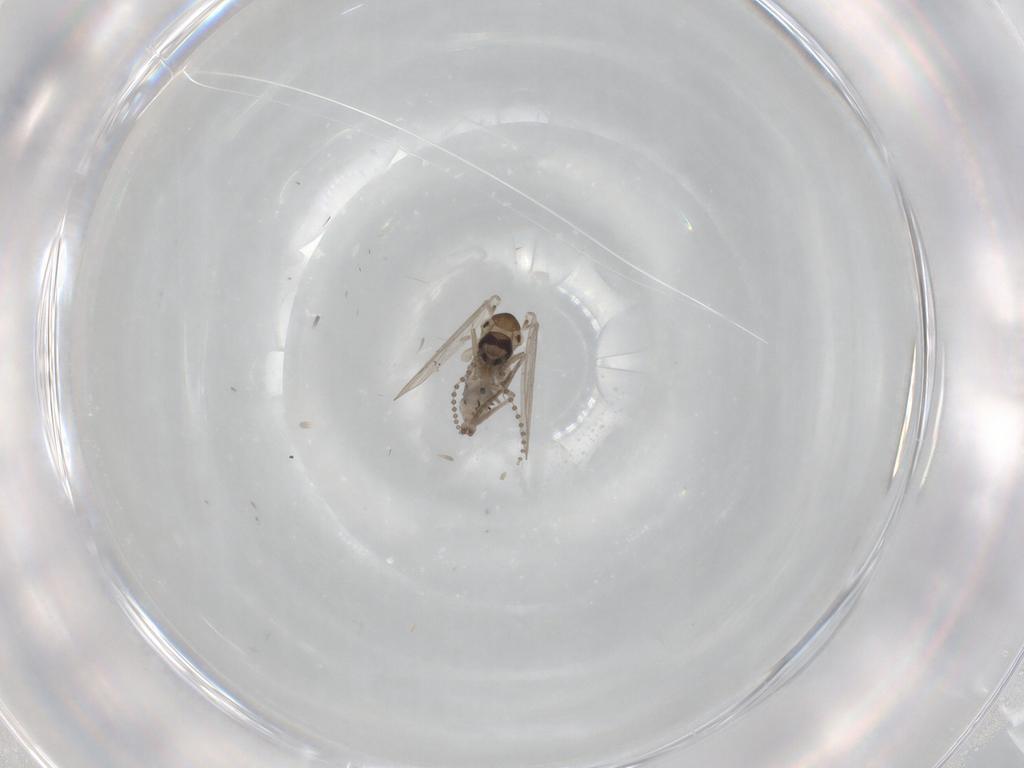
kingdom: Animalia
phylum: Arthropoda
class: Insecta
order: Diptera
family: Psychodidae
